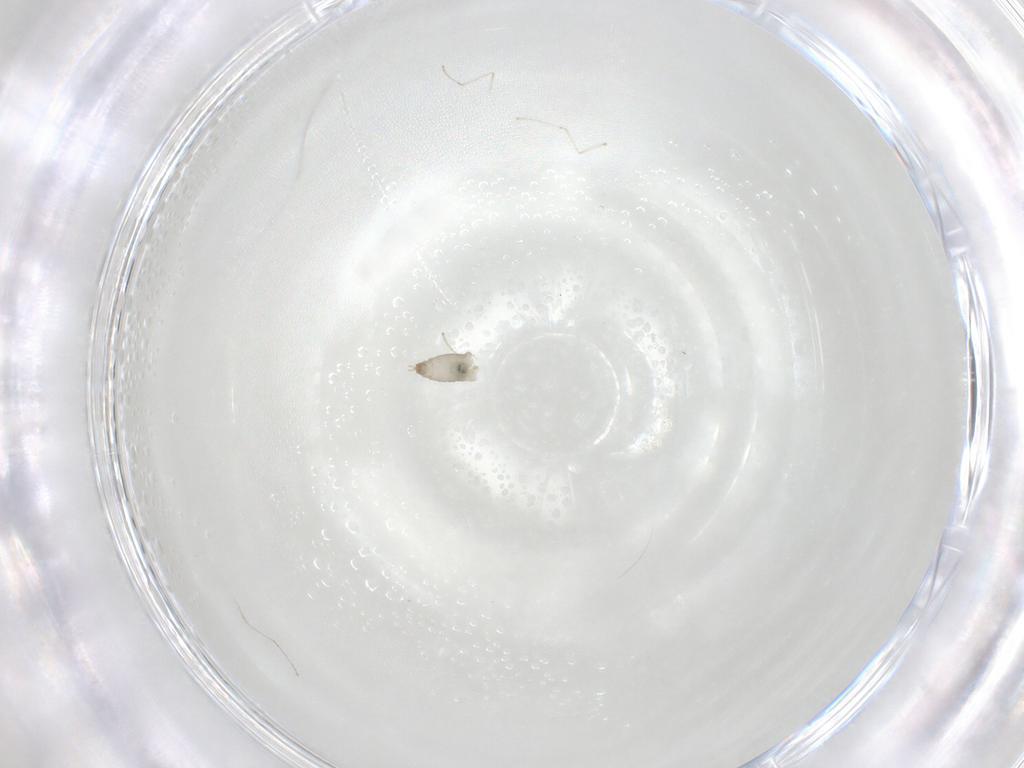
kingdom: Animalia
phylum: Arthropoda
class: Insecta
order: Diptera
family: Cecidomyiidae
